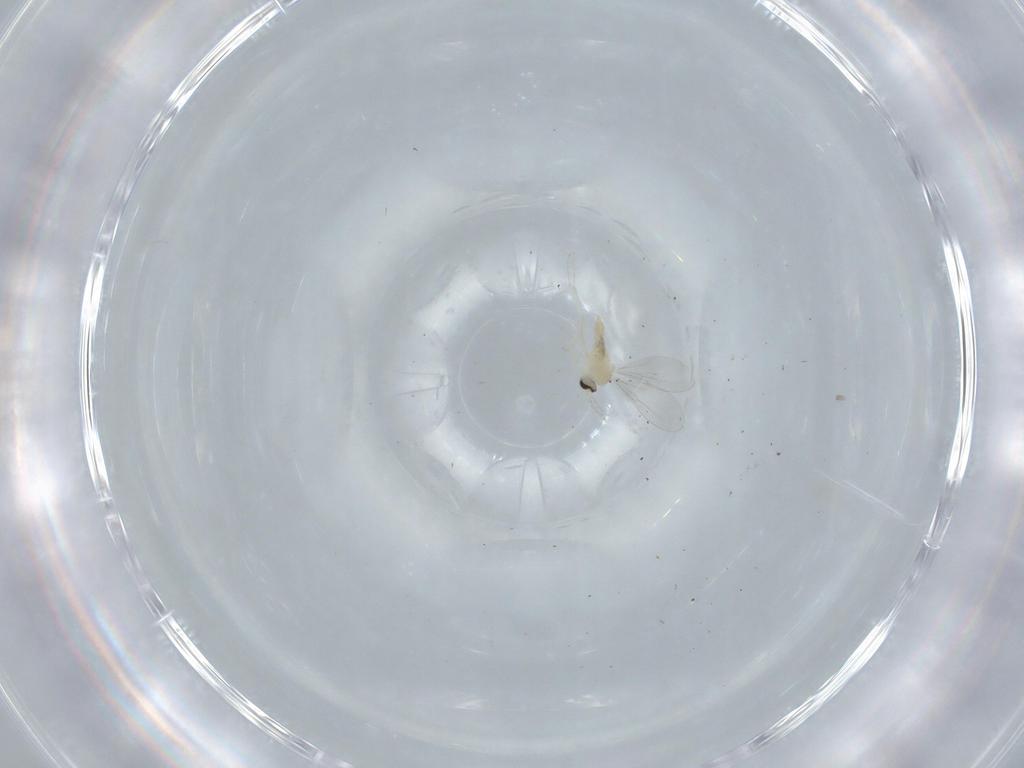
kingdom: Animalia
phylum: Arthropoda
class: Insecta
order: Diptera
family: Cecidomyiidae
